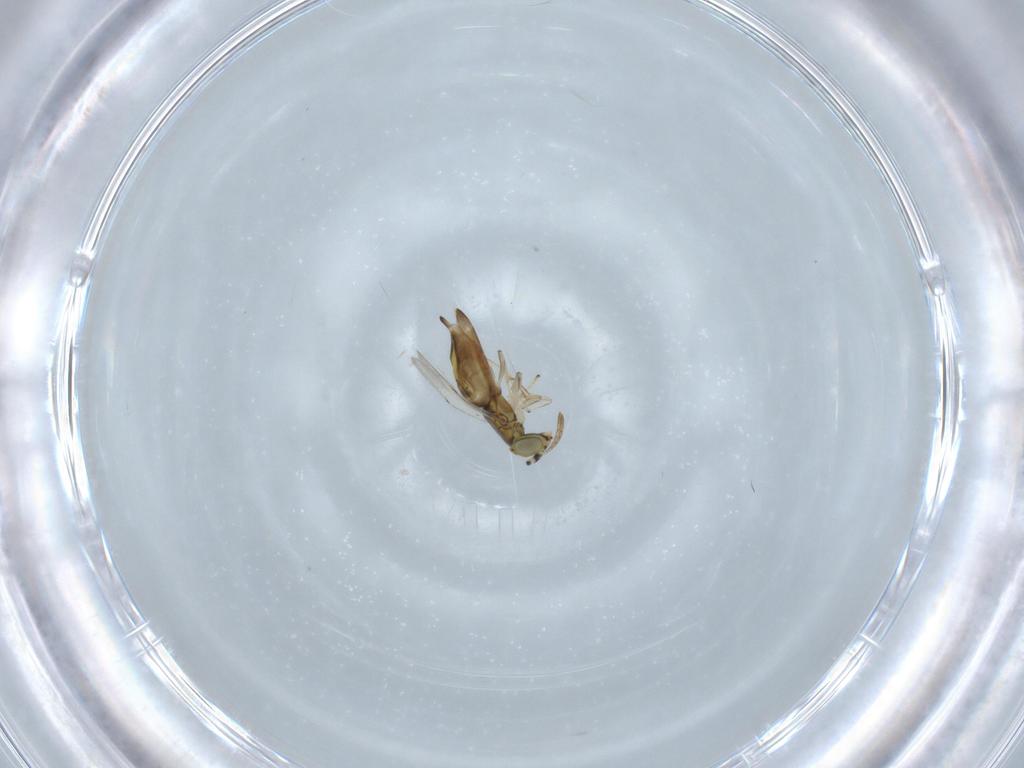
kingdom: Animalia
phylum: Arthropoda
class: Insecta
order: Hymenoptera
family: Encyrtidae
